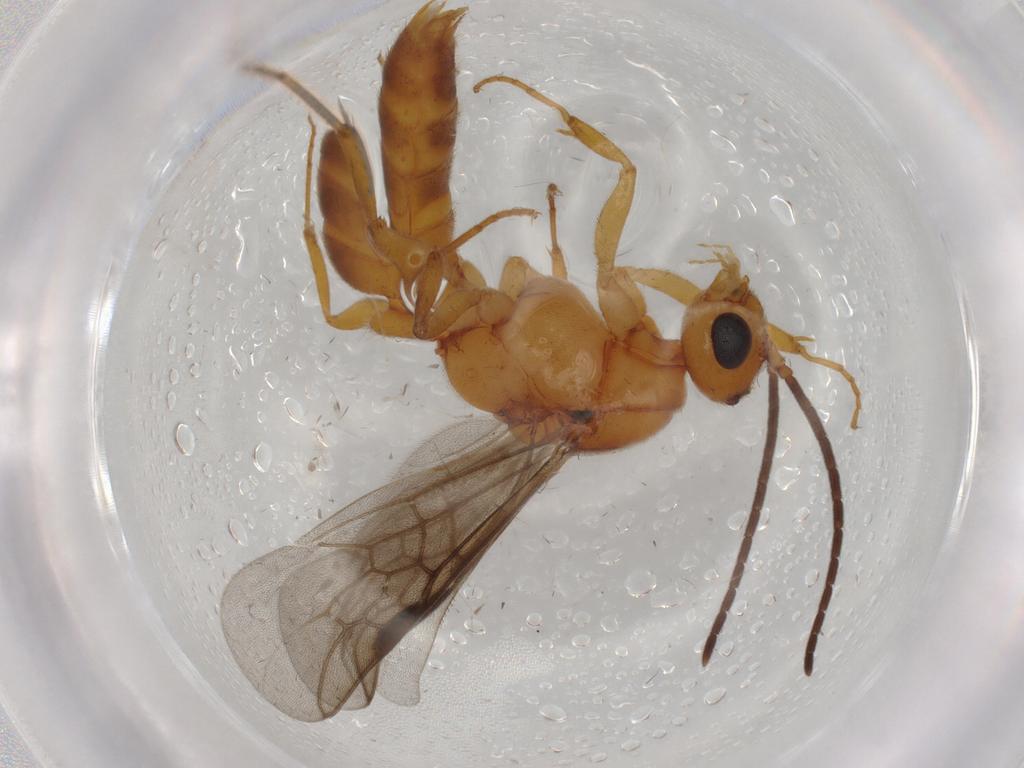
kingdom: Animalia
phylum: Arthropoda
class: Insecta
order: Hymenoptera
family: Formicidae
